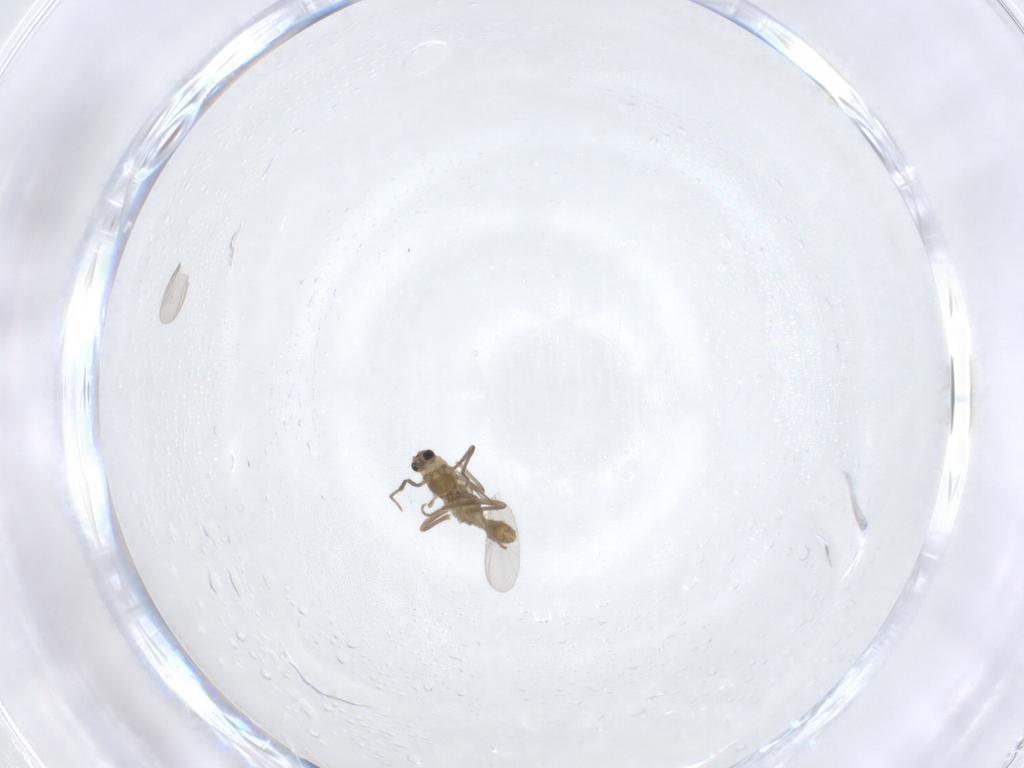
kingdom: Animalia
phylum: Arthropoda
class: Insecta
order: Diptera
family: Chironomidae
